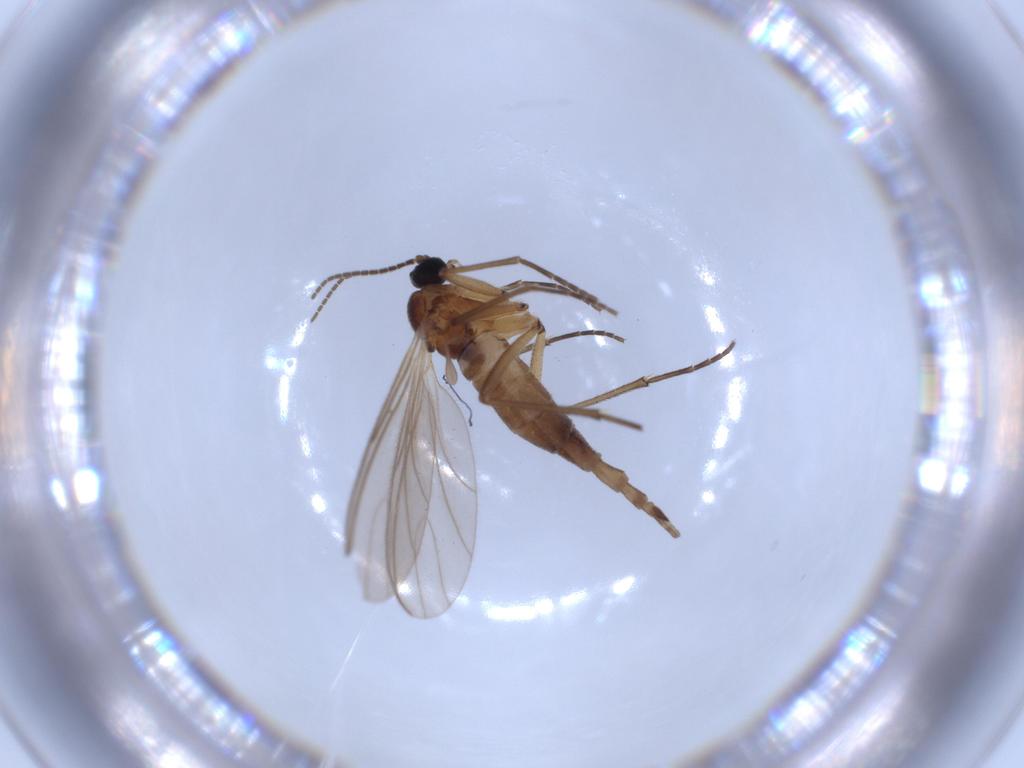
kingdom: Animalia
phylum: Arthropoda
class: Insecta
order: Diptera
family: Sciaridae
